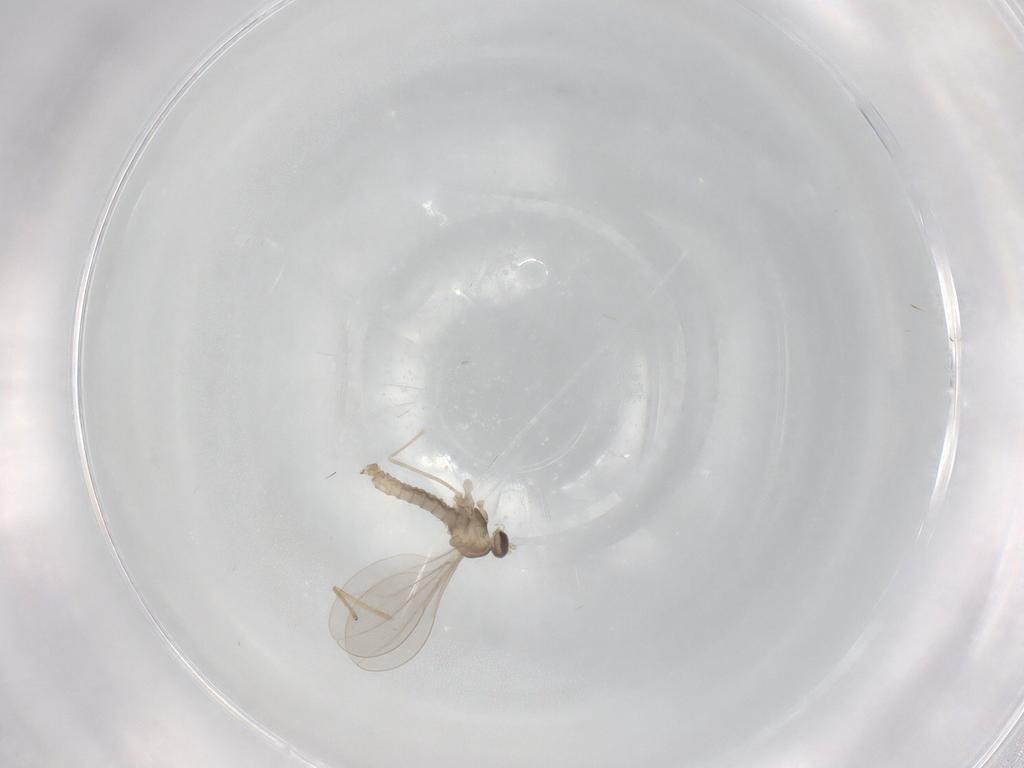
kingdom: Animalia
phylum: Arthropoda
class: Insecta
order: Diptera
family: Cecidomyiidae
